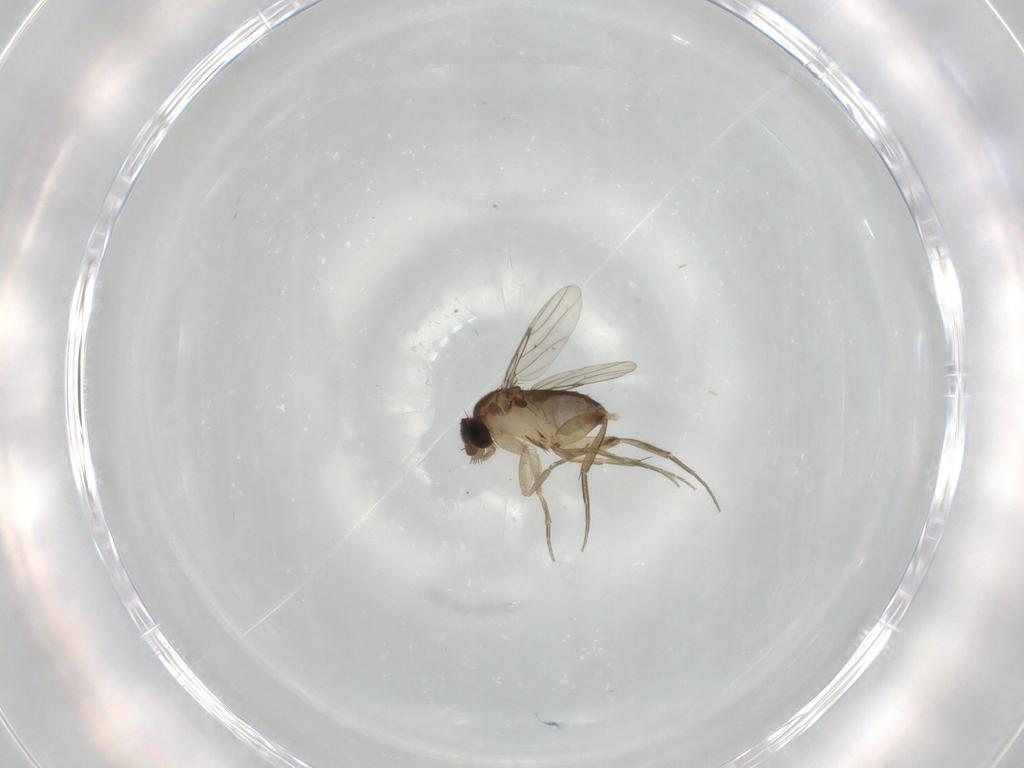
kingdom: Animalia
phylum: Arthropoda
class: Insecta
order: Diptera
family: Phoridae
